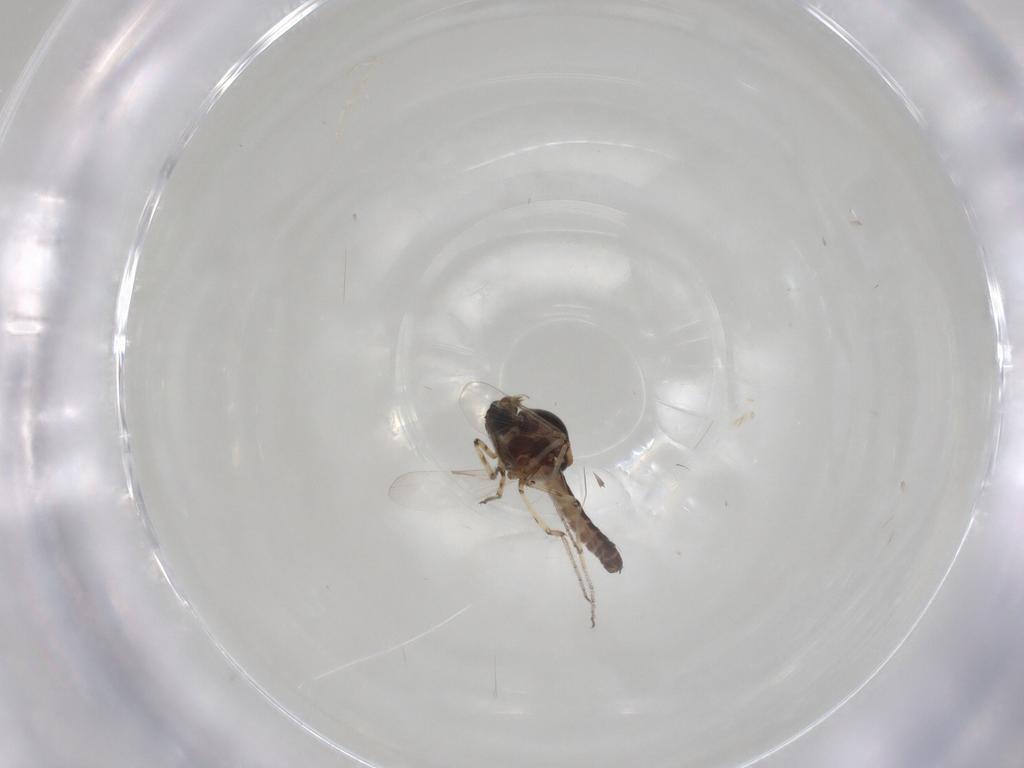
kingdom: Animalia
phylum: Arthropoda
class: Insecta
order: Diptera
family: Ceratopogonidae
